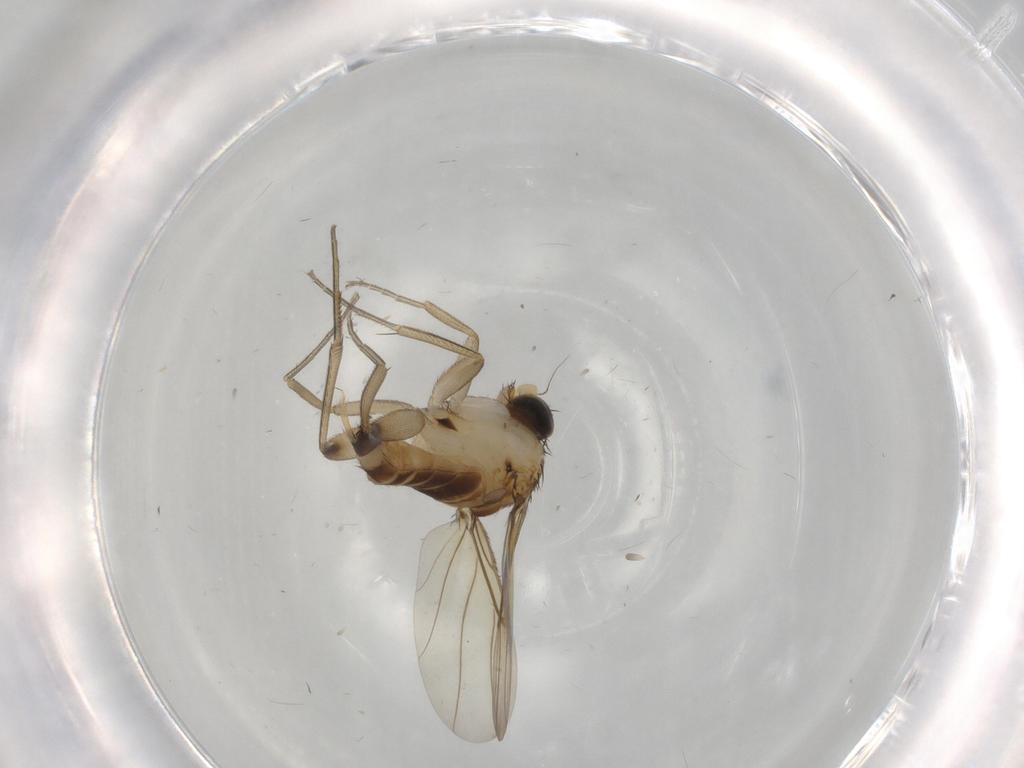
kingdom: Animalia
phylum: Arthropoda
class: Insecta
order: Diptera
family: Phoridae
